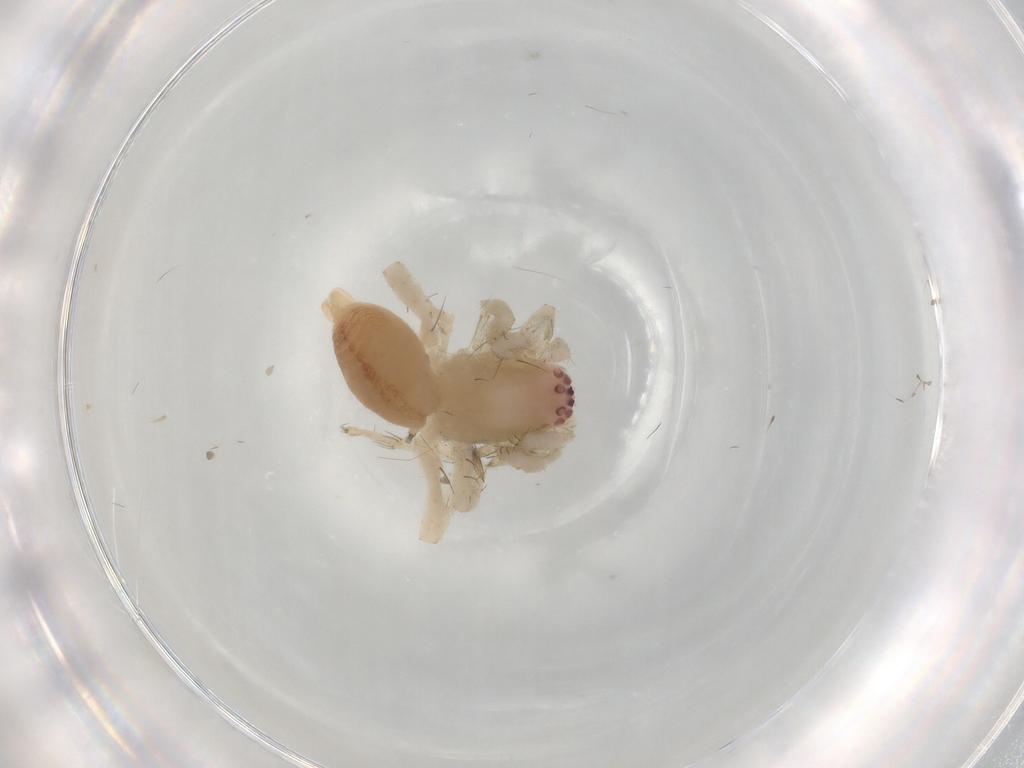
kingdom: Animalia
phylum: Arthropoda
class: Arachnida
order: Araneae
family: Clubionidae
